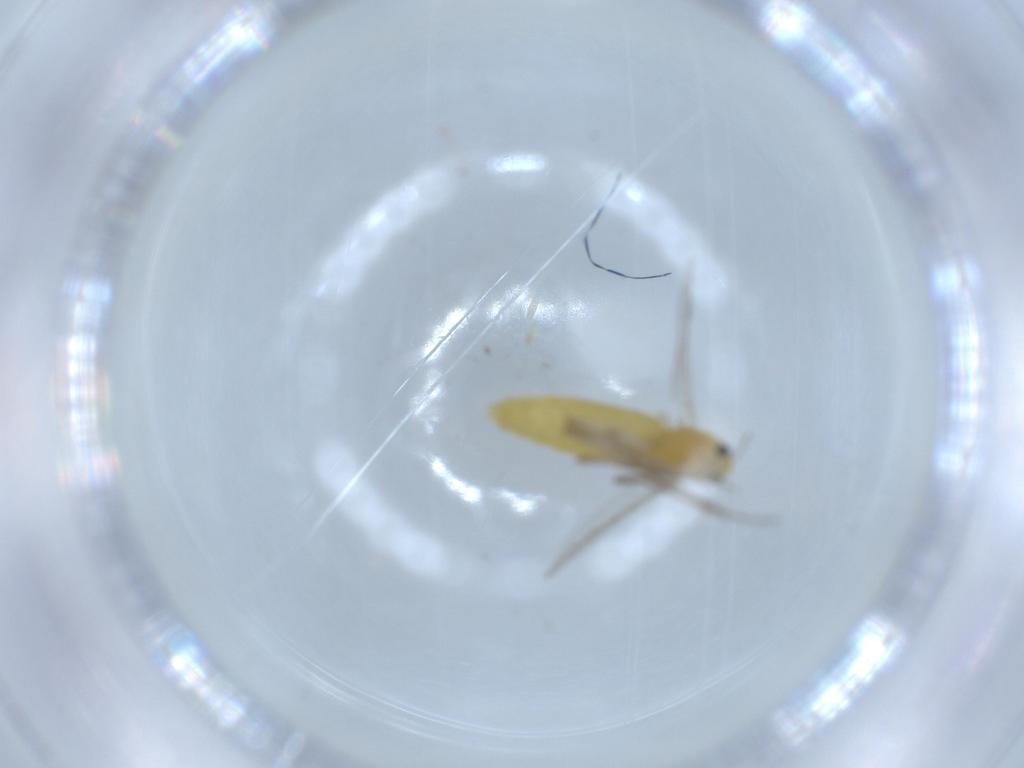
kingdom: Animalia
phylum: Arthropoda
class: Insecta
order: Diptera
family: Chironomidae
